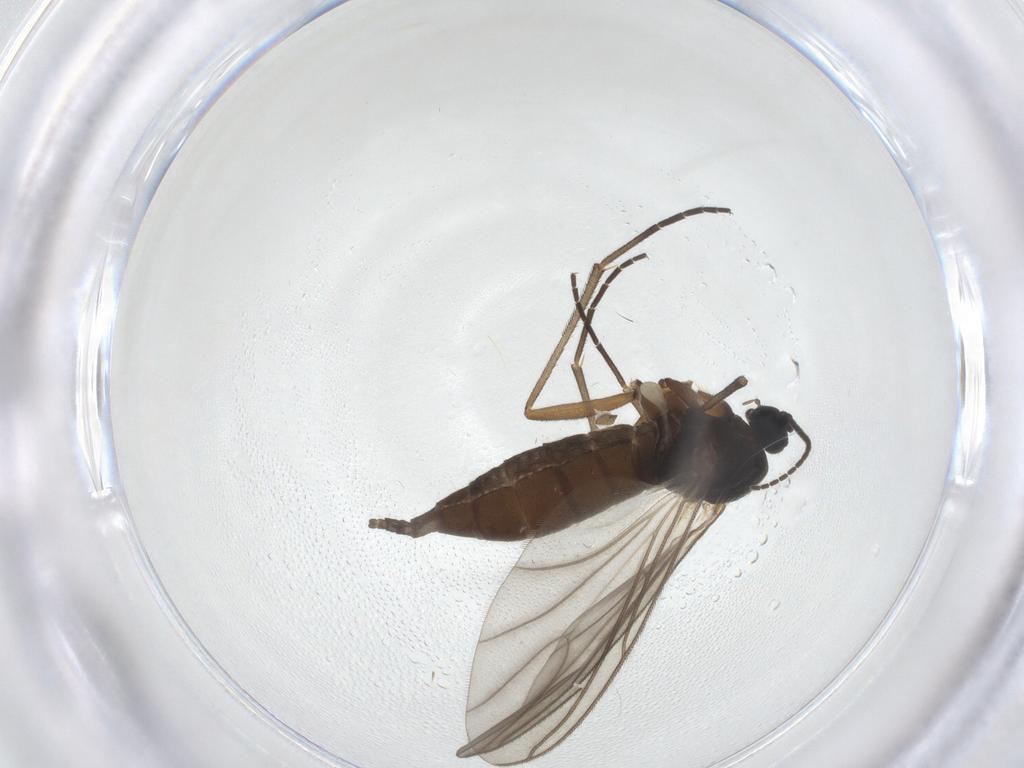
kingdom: Animalia
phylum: Arthropoda
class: Insecta
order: Diptera
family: Sciaridae
